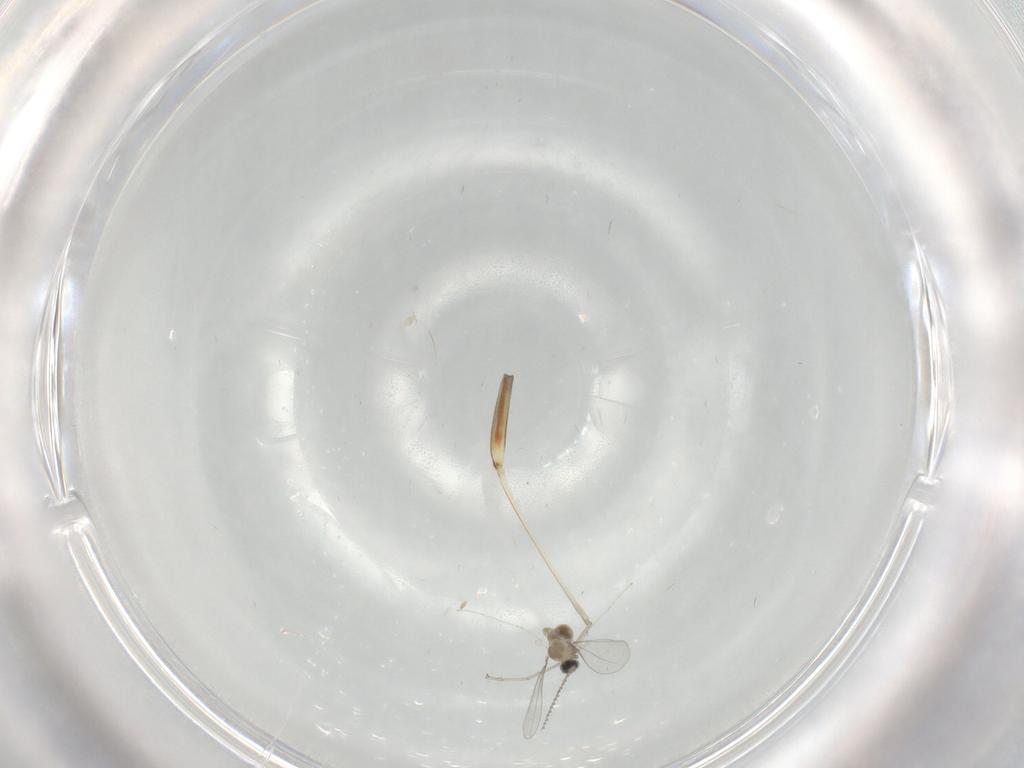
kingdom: Animalia
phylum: Arthropoda
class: Insecta
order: Diptera
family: Cecidomyiidae
